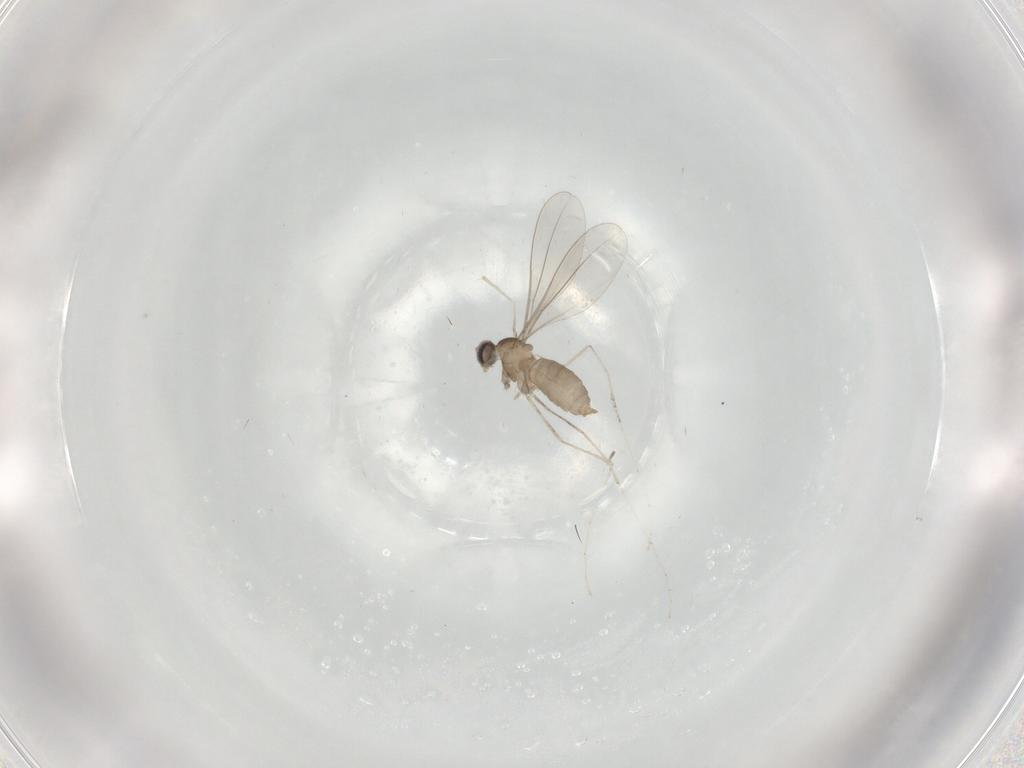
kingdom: Animalia
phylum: Arthropoda
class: Insecta
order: Diptera
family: Cecidomyiidae
